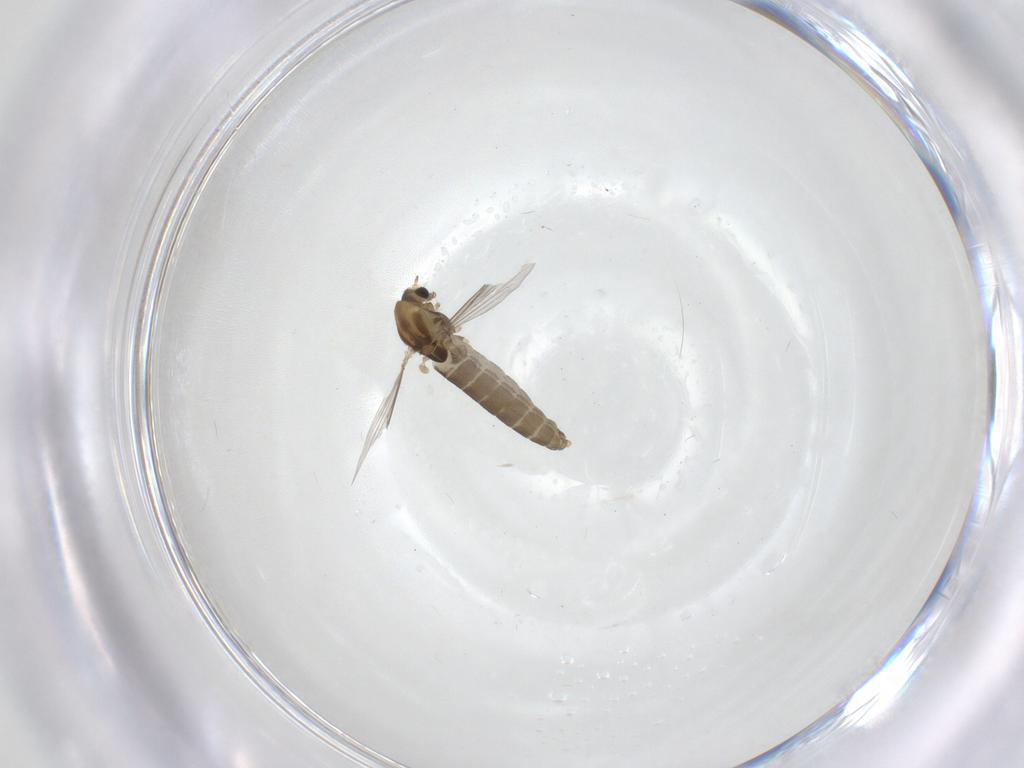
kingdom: Animalia
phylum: Arthropoda
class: Insecta
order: Diptera
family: Chironomidae
